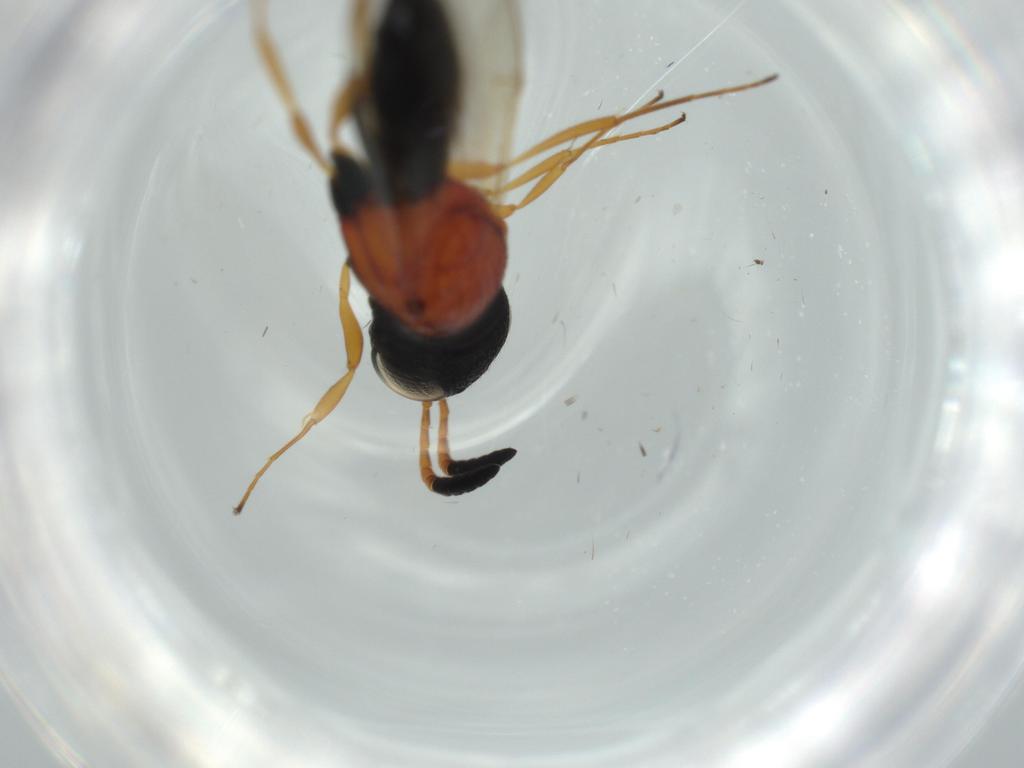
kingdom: Animalia
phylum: Arthropoda
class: Insecta
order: Hymenoptera
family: Scelionidae
